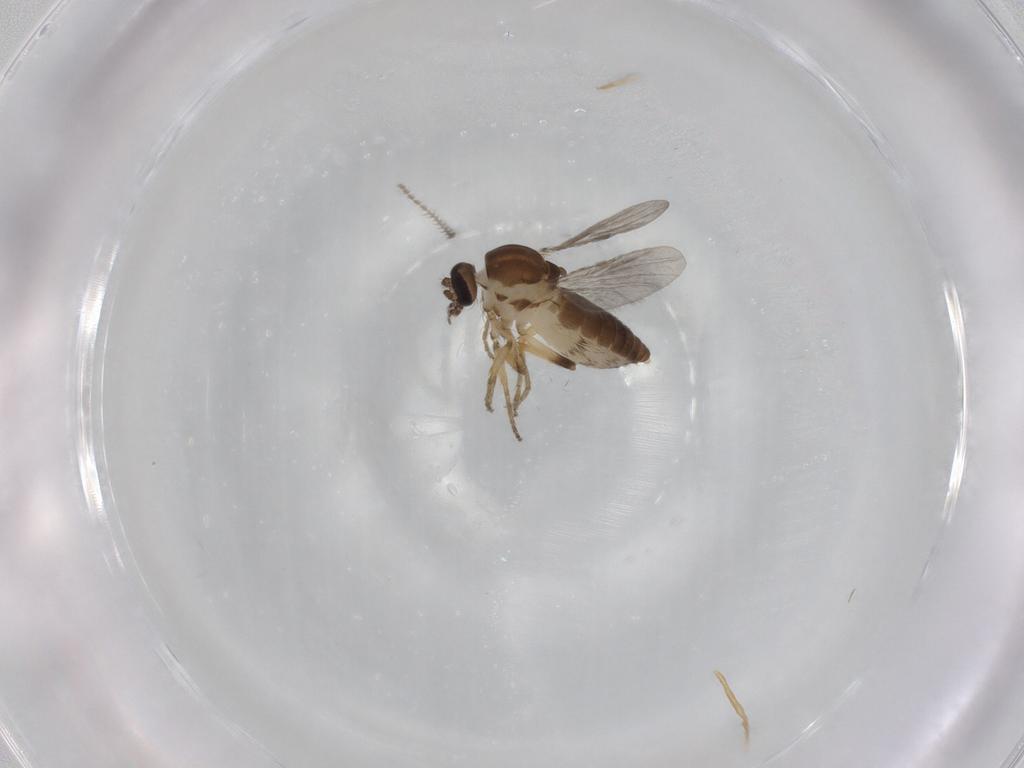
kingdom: Animalia
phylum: Arthropoda
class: Insecta
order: Diptera
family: Ceratopogonidae
